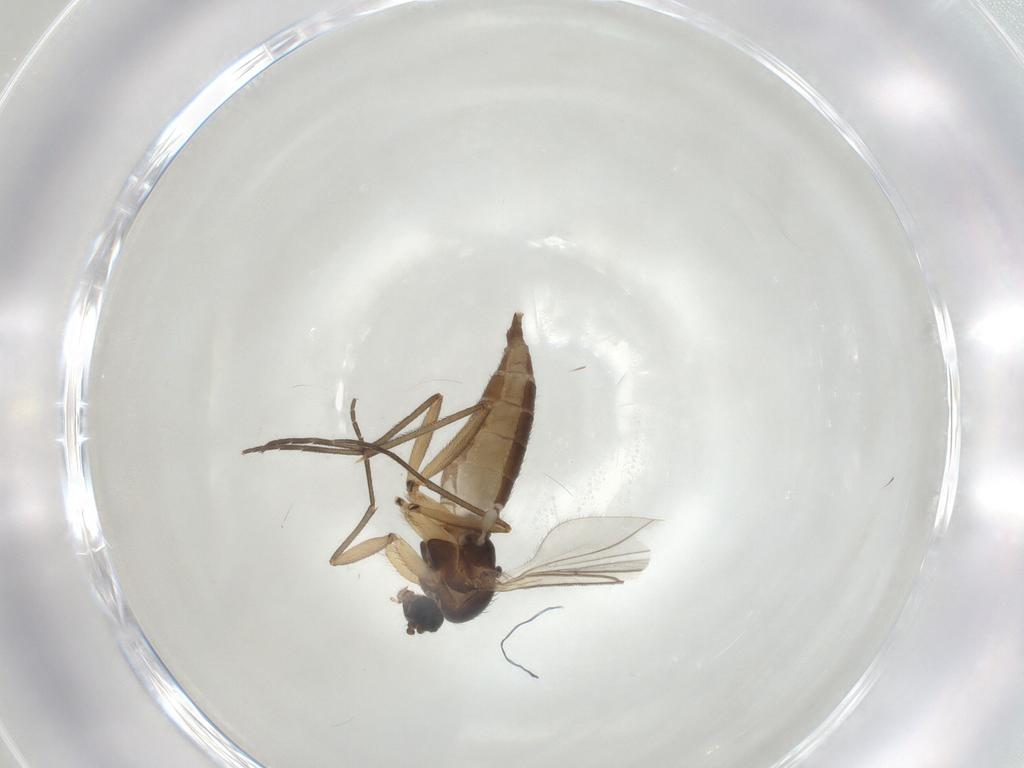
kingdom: Animalia
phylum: Arthropoda
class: Insecta
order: Diptera
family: Sciaridae
